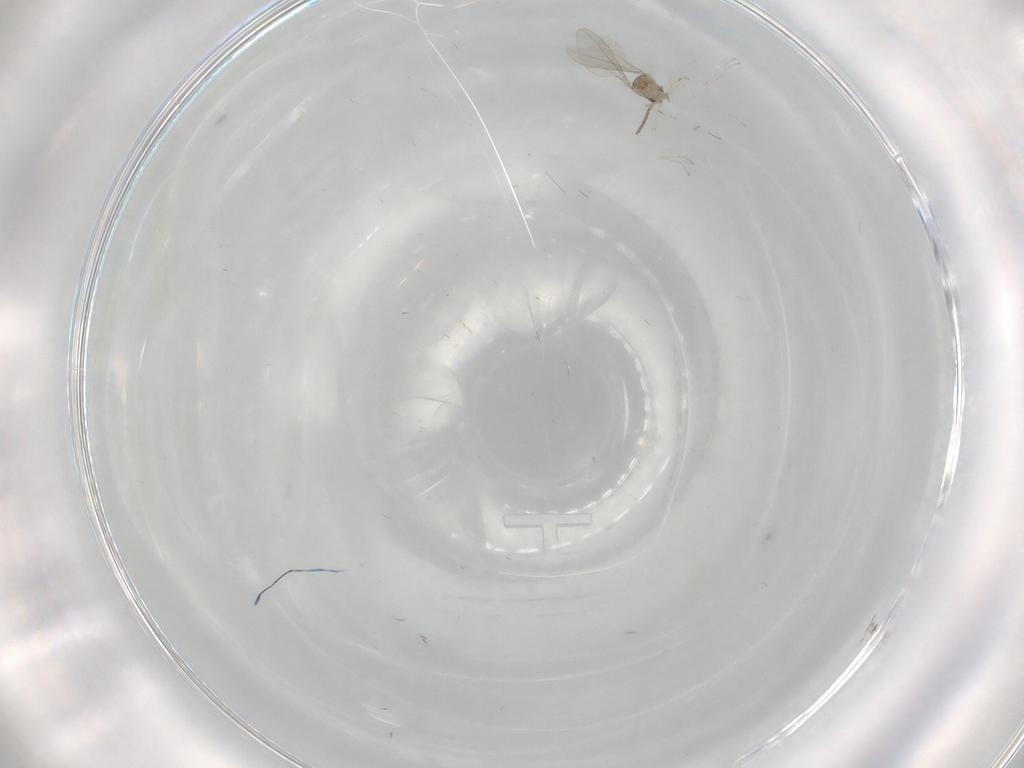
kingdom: Animalia
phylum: Arthropoda
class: Insecta
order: Diptera
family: Cecidomyiidae
